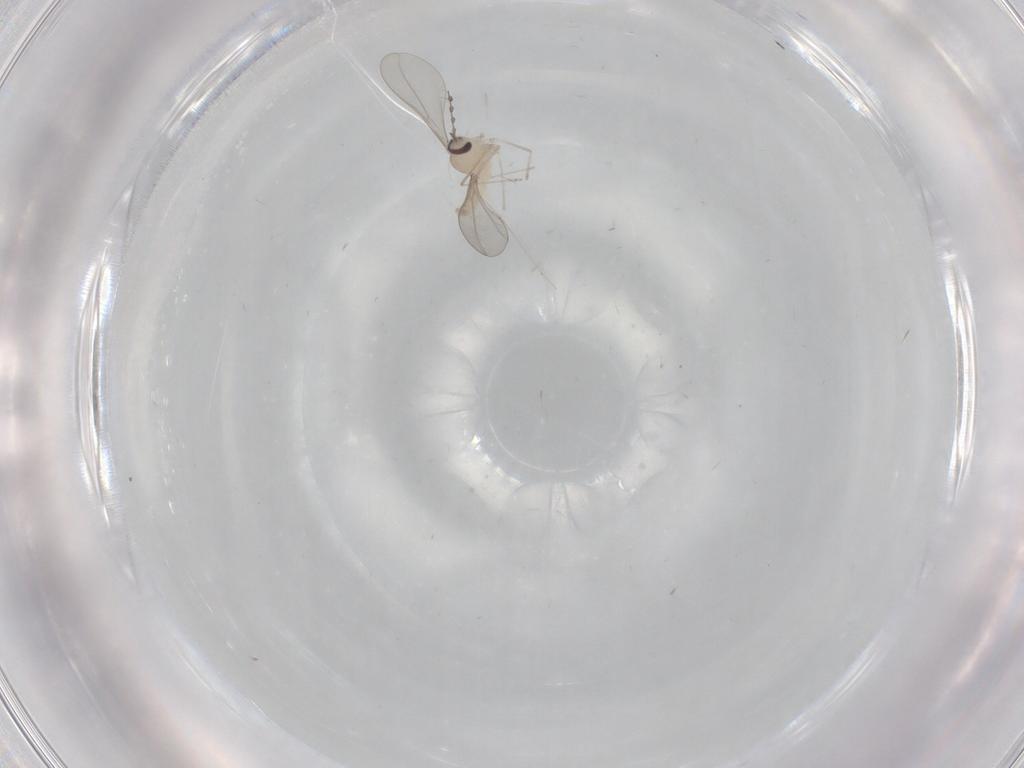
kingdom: Animalia
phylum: Arthropoda
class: Insecta
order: Diptera
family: Cecidomyiidae
